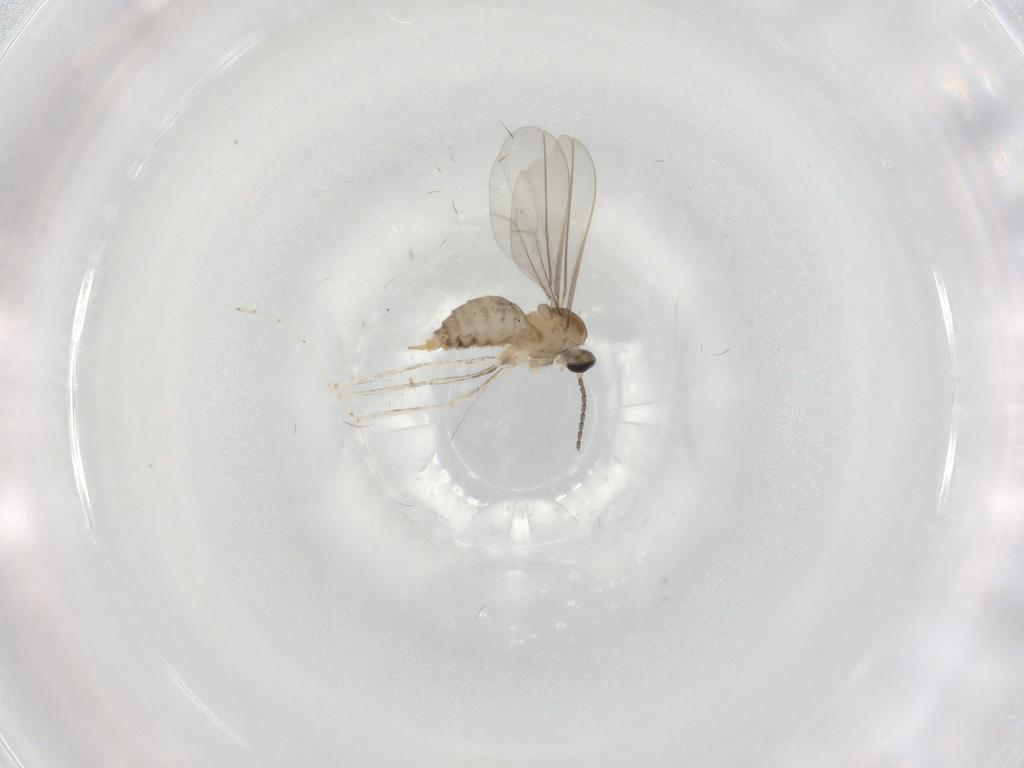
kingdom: Animalia
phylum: Arthropoda
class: Insecta
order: Diptera
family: Cecidomyiidae
